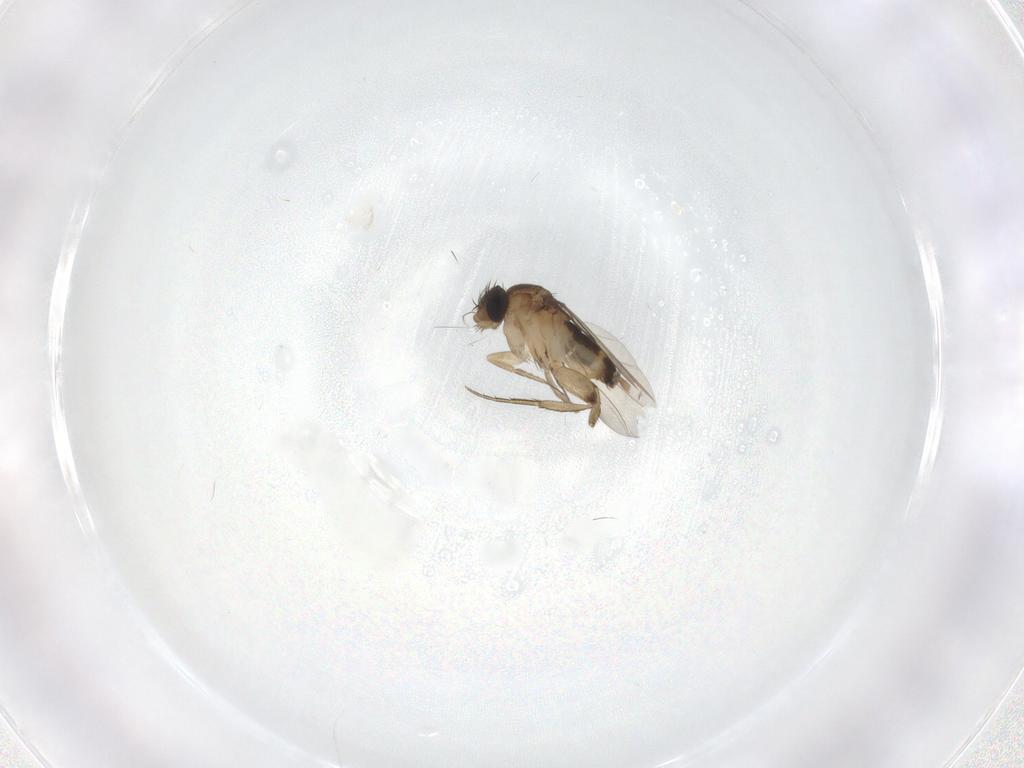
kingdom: Animalia
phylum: Arthropoda
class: Insecta
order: Diptera
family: Phoridae
